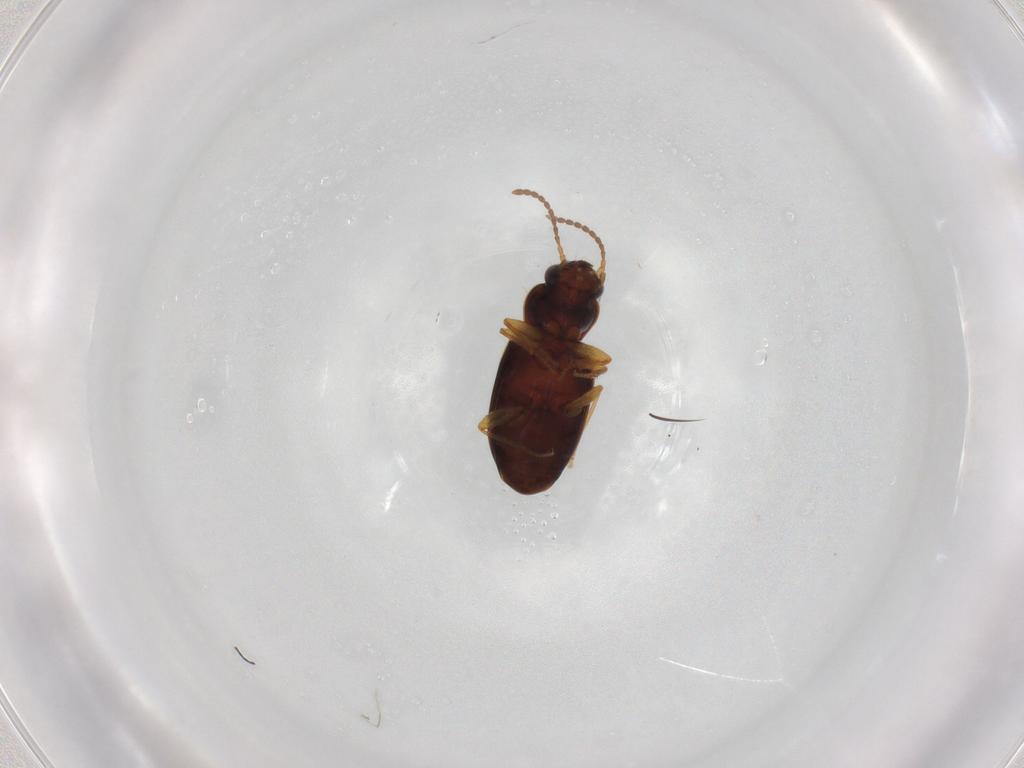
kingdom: Animalia
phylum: Arthropoda
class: Insecta
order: Coleoptera
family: Carabidae
